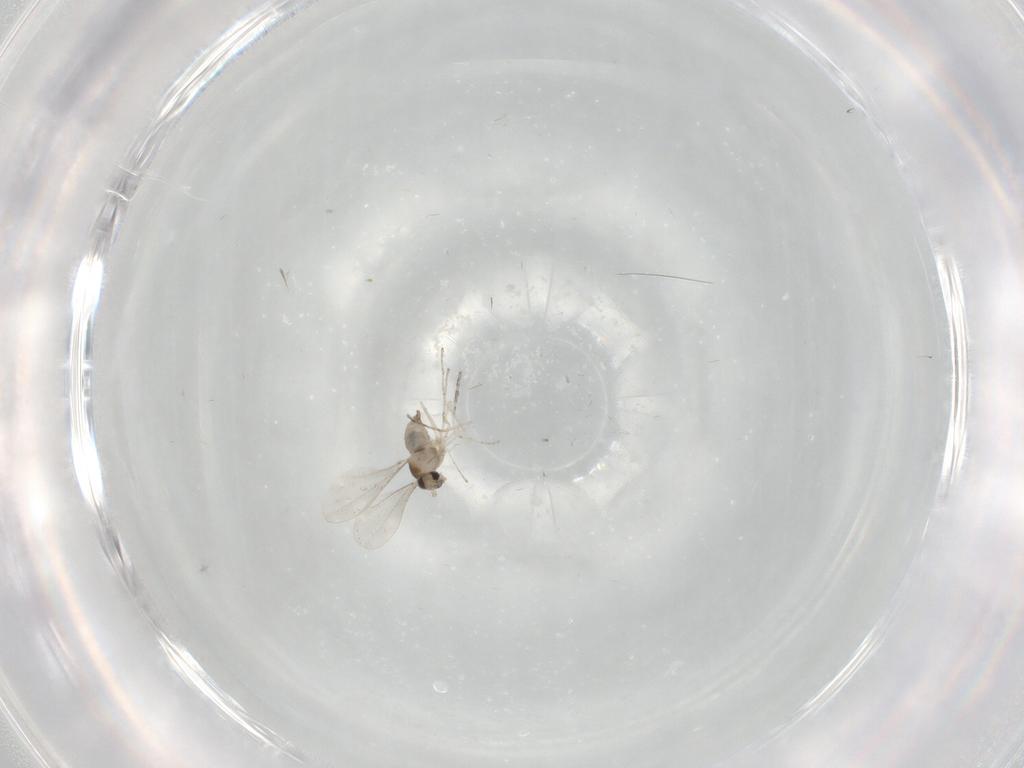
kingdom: Animalia
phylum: Arthropoda
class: Insecta
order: Diptera
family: Cecidomyiidae
